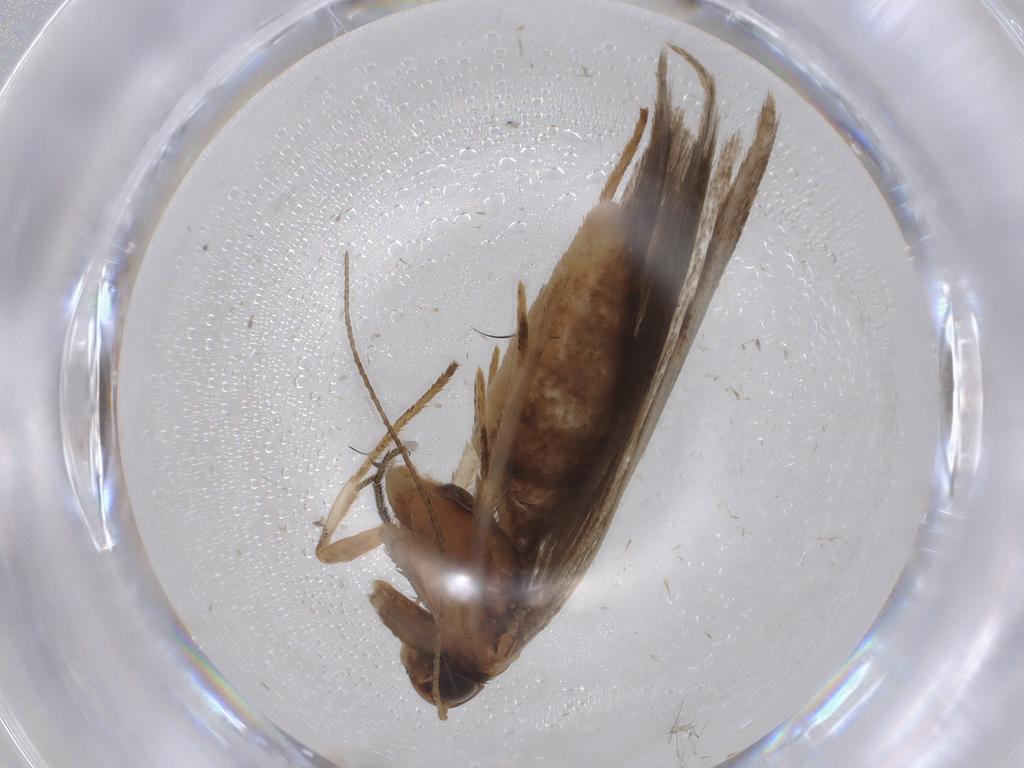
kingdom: Animalia
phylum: Arthropoda
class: Insecta
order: Lepidoptera
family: Gelechiidae
